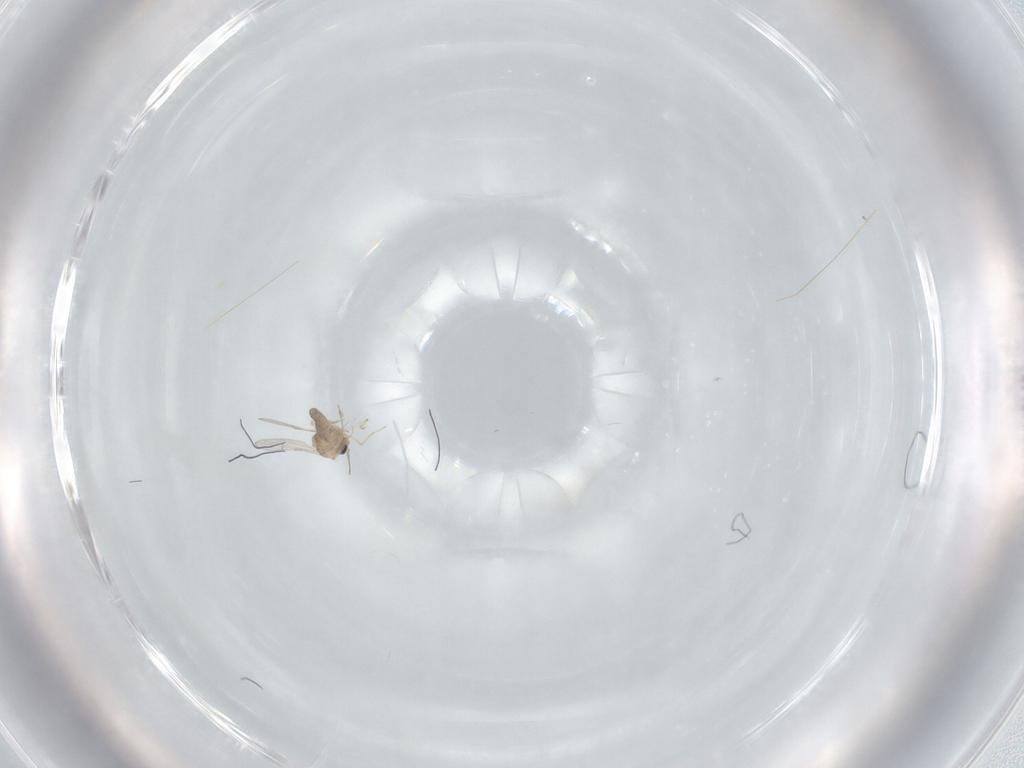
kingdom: Animalia
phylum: Arthropoda
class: Insecta
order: Diptera
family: Ceratopogonidae
